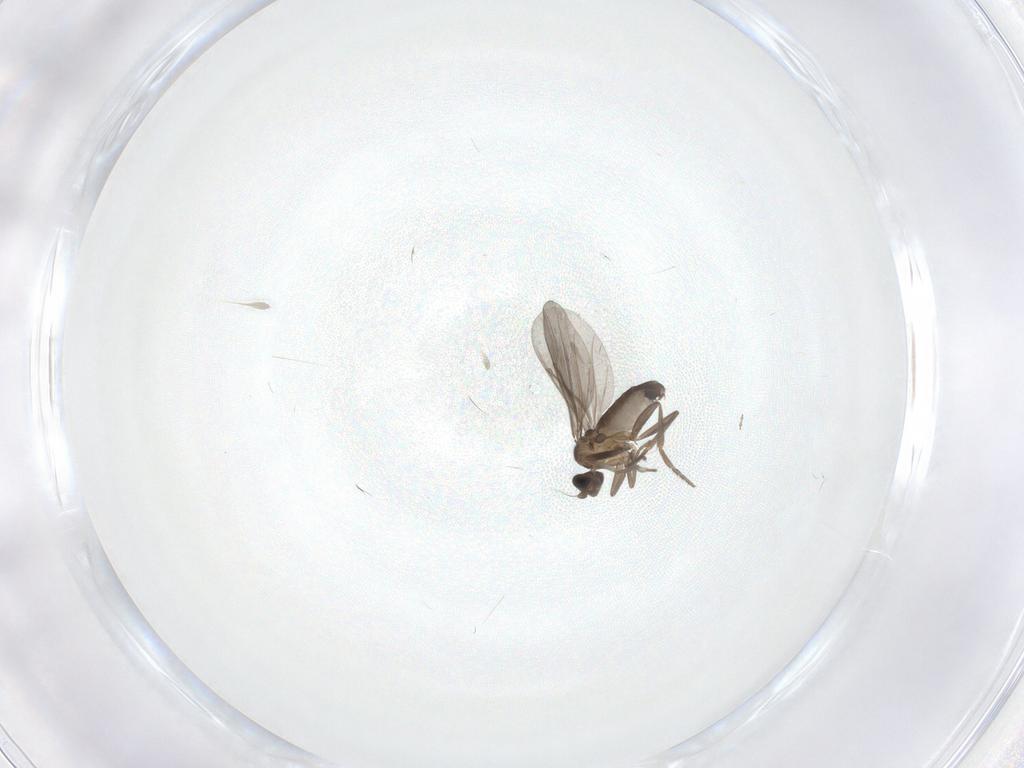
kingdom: Animalia
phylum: Arthropoda
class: Insecta
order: Diptera
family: Phoridae
